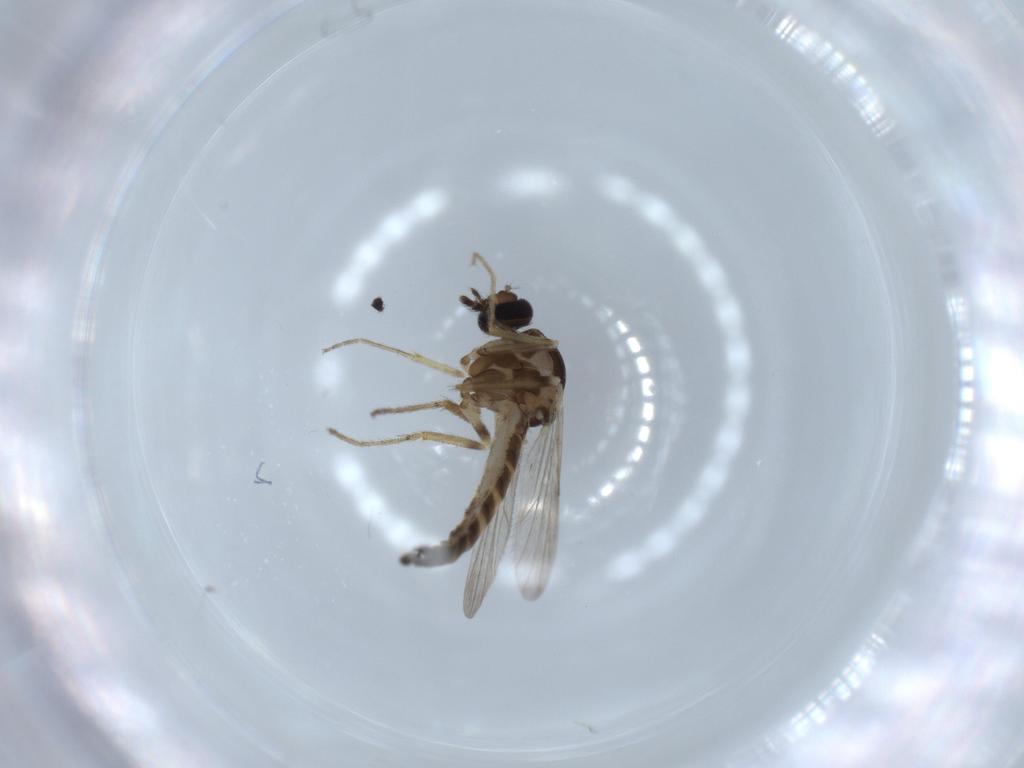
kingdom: Animalia
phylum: Arthropoda
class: Insecta
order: Diptera
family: Ceratopogonidae
